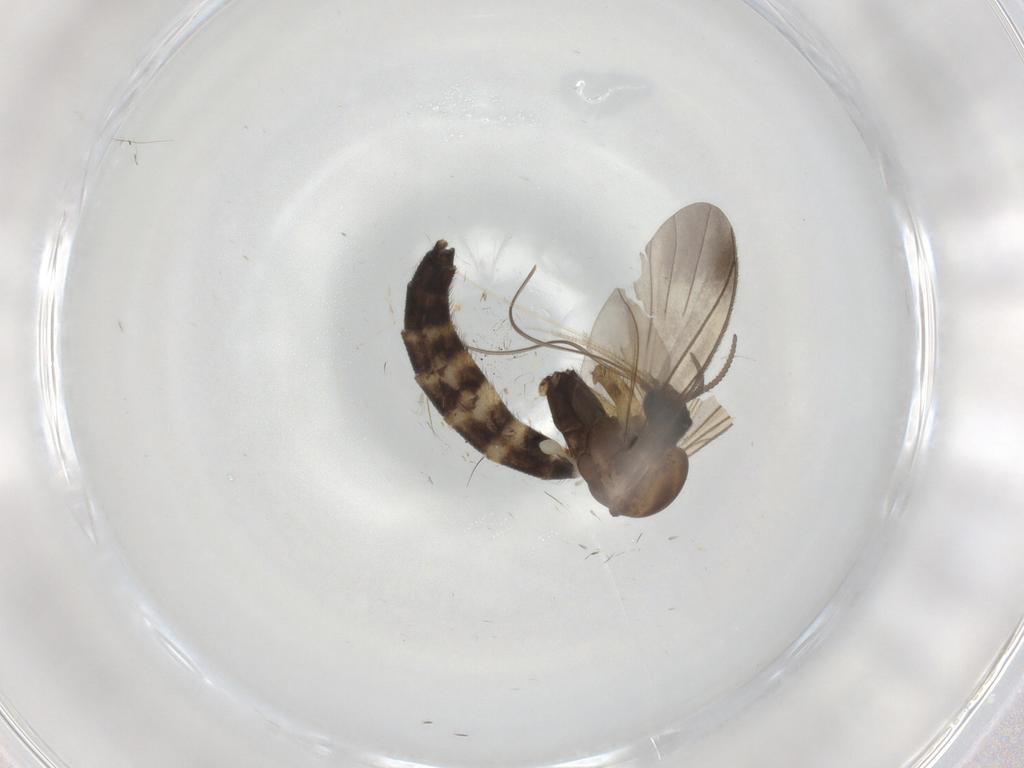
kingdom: Animalia
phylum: Arthropoda
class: Insecta
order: Diptera
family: Keroplatidae
